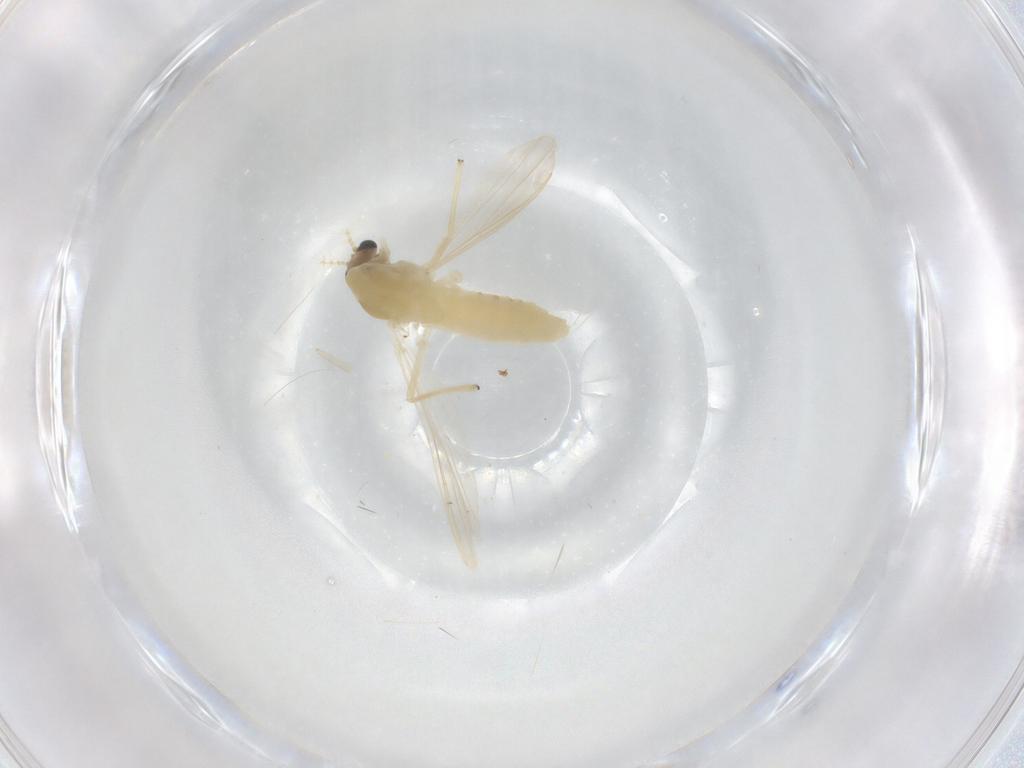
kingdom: Animalia
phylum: Arthropoda
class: Insecta
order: Diptera
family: Chironomidae
